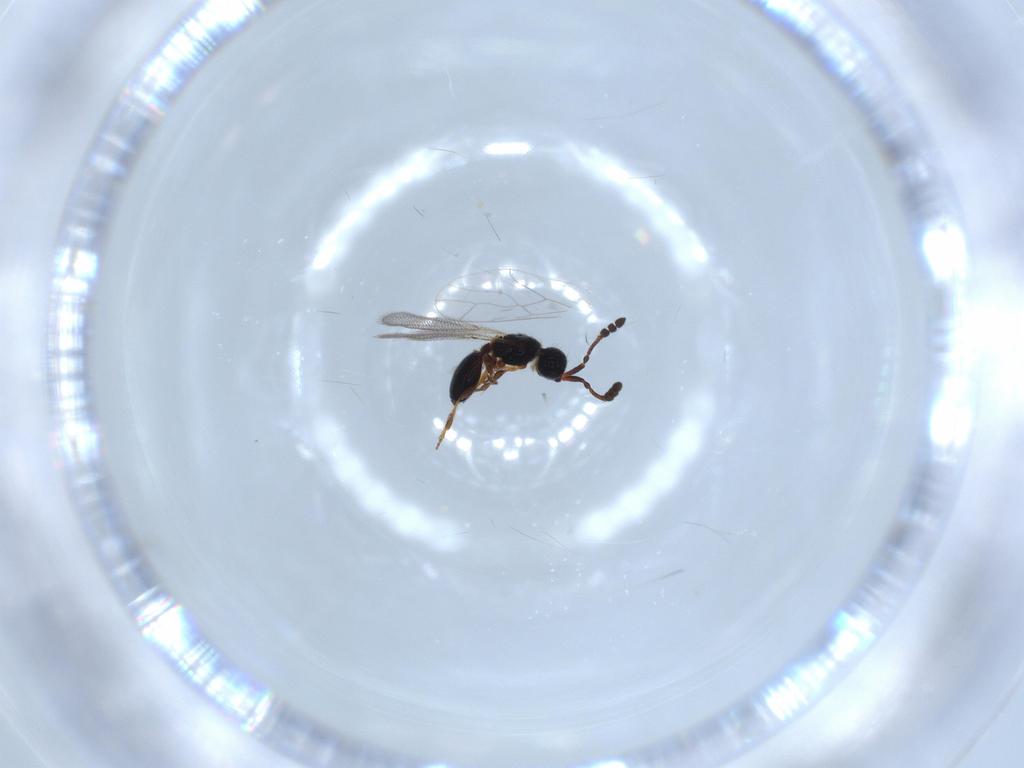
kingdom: Animalia
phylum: Arthropoda
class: Insecta
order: Hymenoptera
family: Diapriidae
